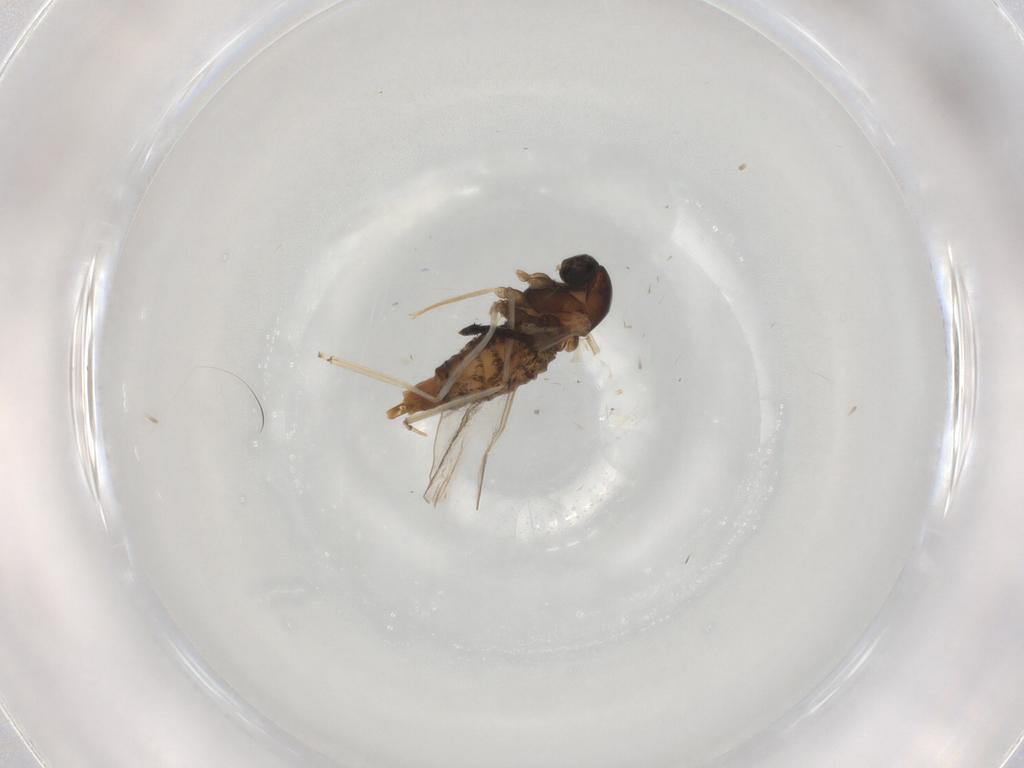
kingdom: Animalia
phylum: Arthropoda
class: Insecta
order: Diptera
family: Cecidomyiidae
